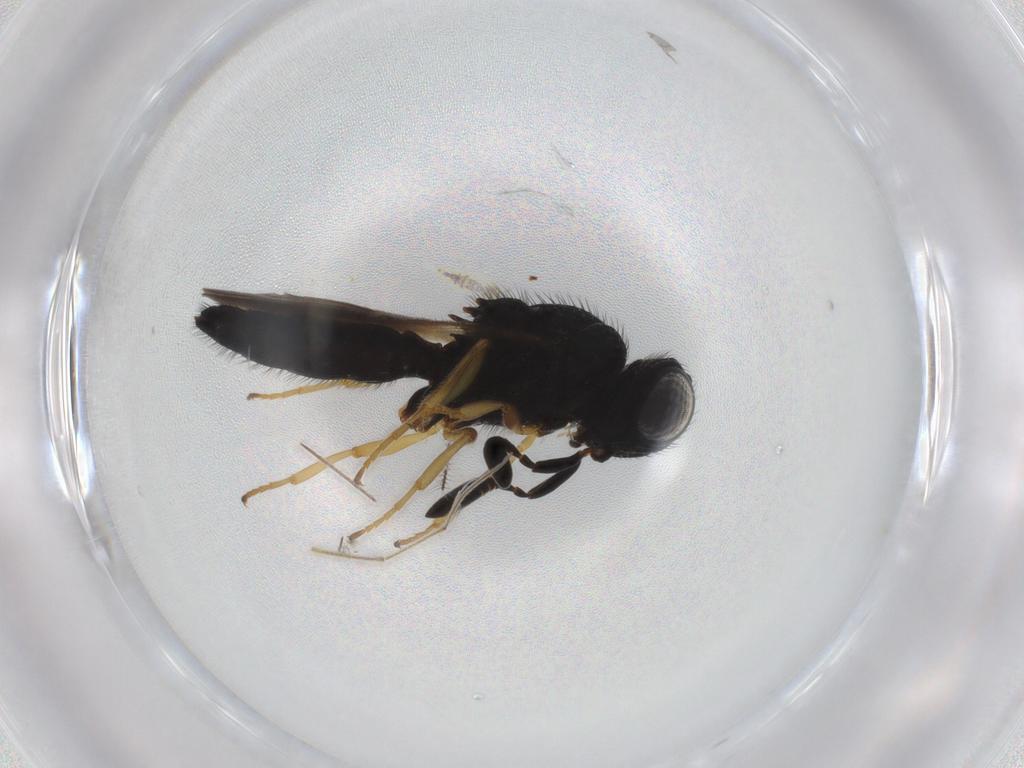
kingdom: Animalia
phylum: Arthropoda
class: Insecta
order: Hymenoptera
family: Scelionidae
